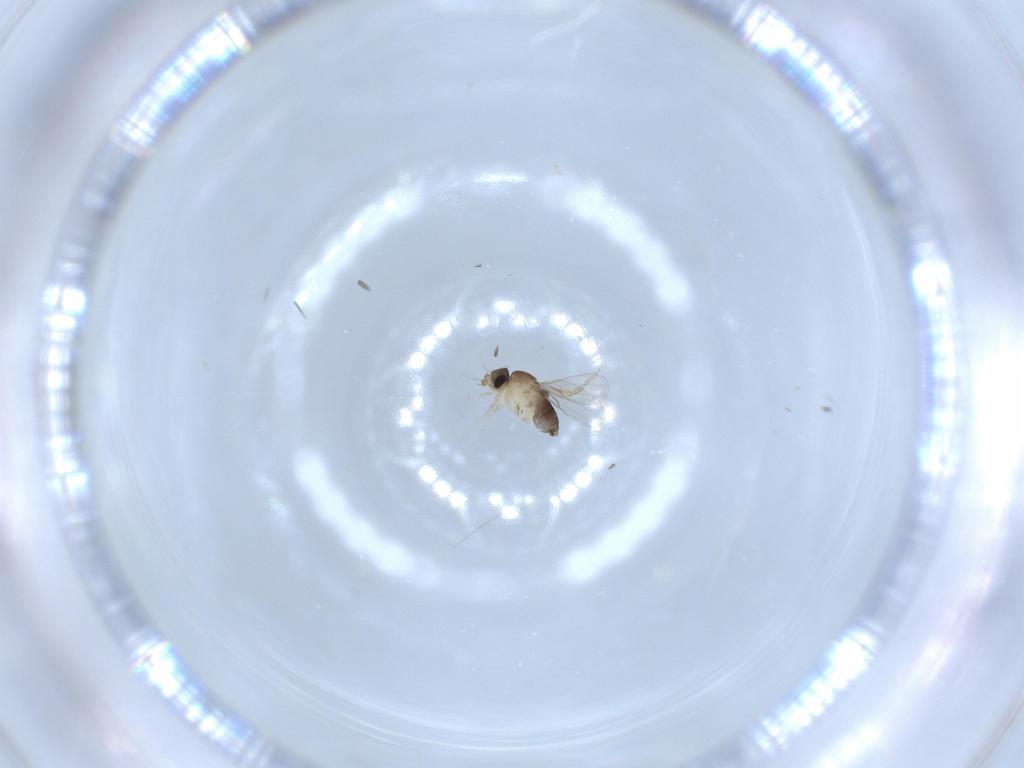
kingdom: Animalia
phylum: Arthropoda
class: Insecta
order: Diptera
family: Phoridae
